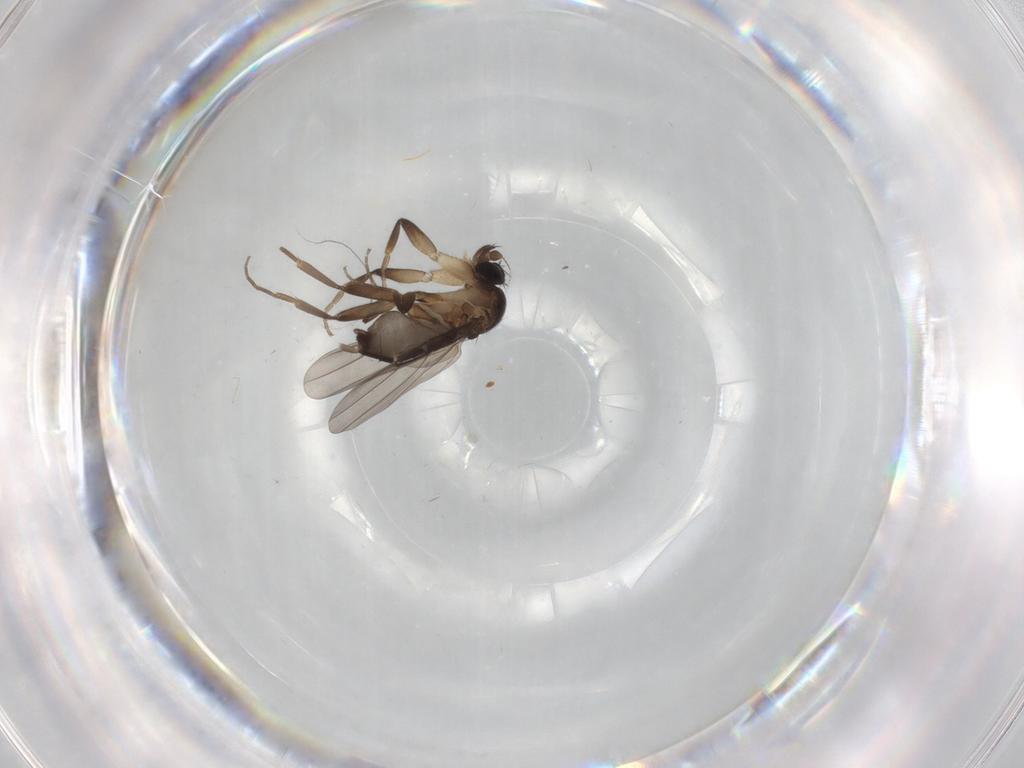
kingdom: Animalia
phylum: Arthropoda
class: Insecta
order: Diptera
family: Phoridae
